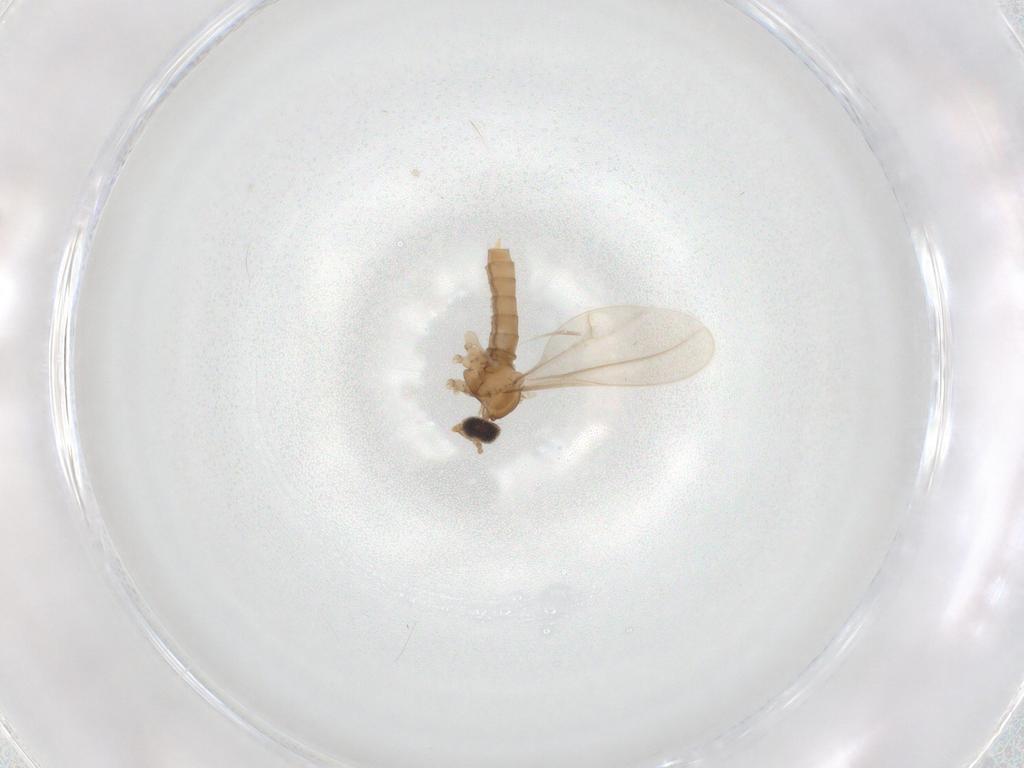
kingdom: Animalia
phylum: Arthropoda
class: Insecta
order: Diptera
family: Cecidomyiidae
